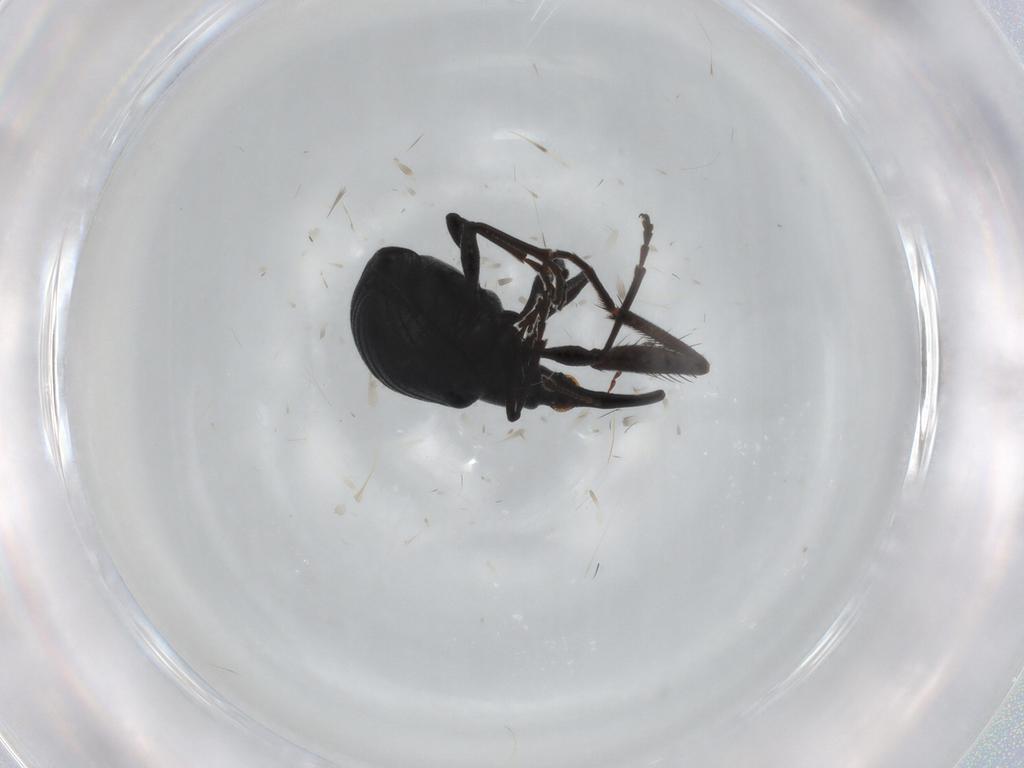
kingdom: Animalia
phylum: Arthropoda
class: Insecta
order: Coleoptera
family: Brentidae
